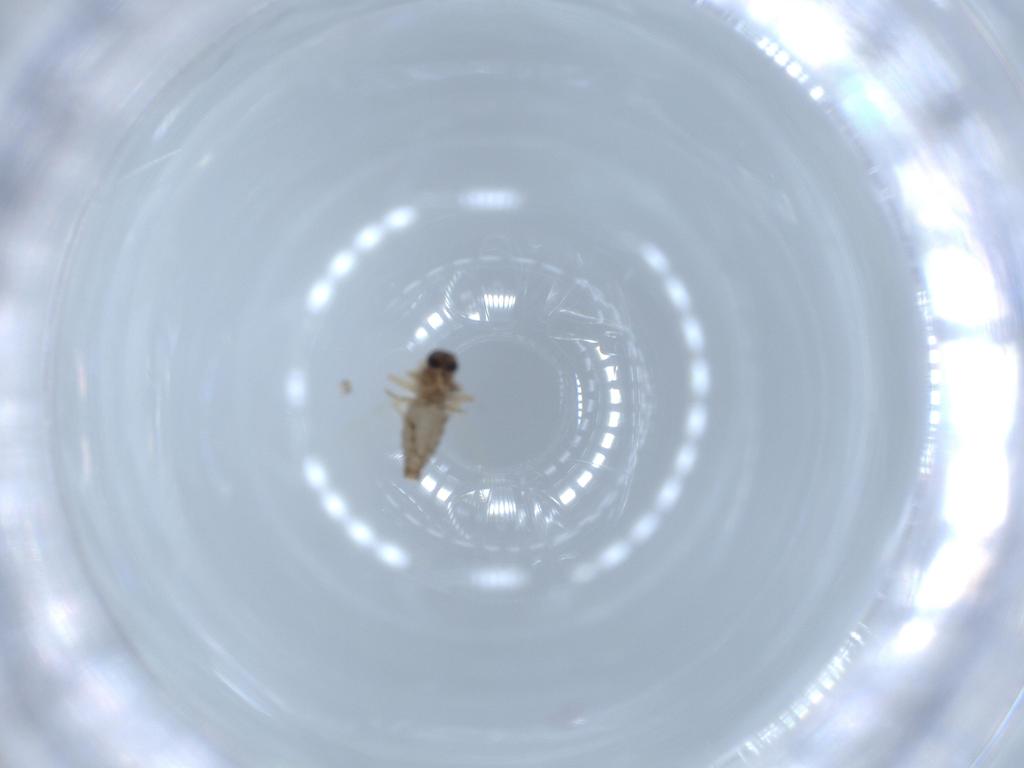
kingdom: Animalia
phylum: Arthropoda
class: Insecta
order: Diptera
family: Ceratopogonidae
